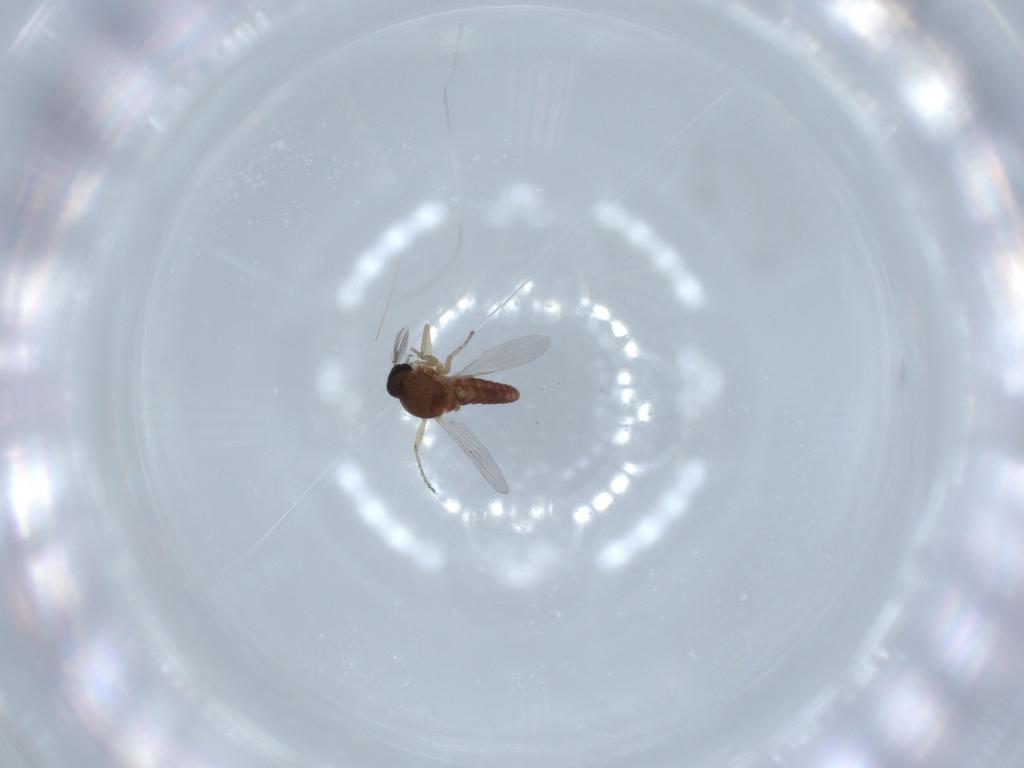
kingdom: Animalia
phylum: Arthropoda
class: Insecta
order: Diptera
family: Ceratopogonidae
